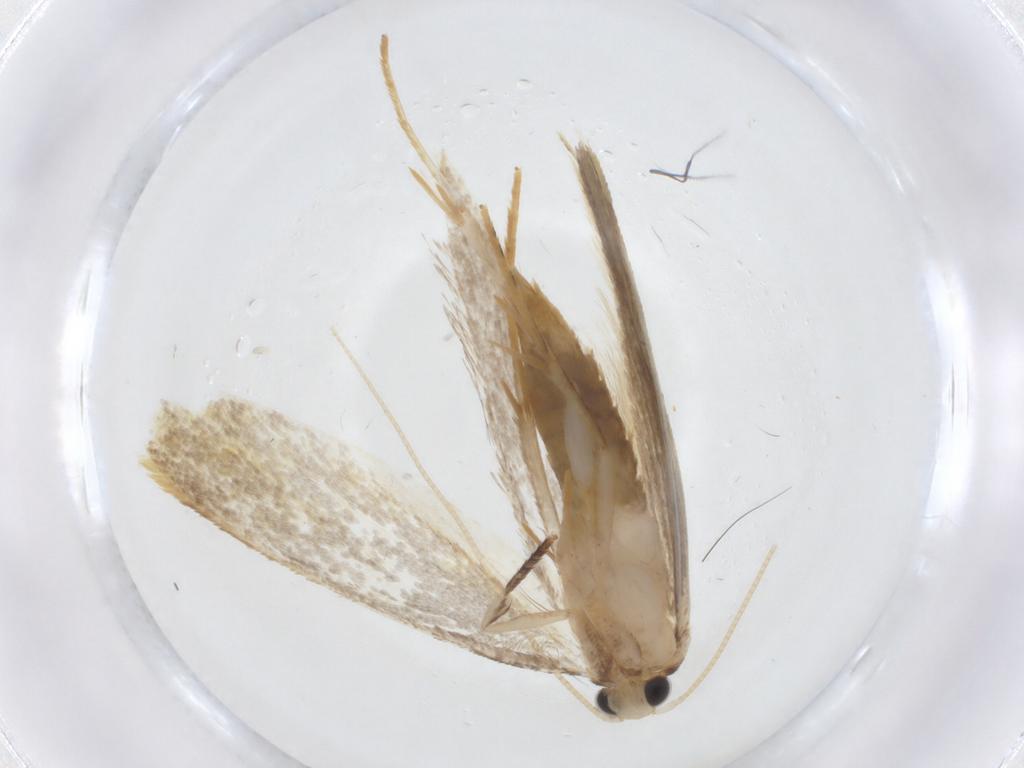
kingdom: Animalia
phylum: Arthropoda
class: Insecta
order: Lepidoptera
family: Tineidae
